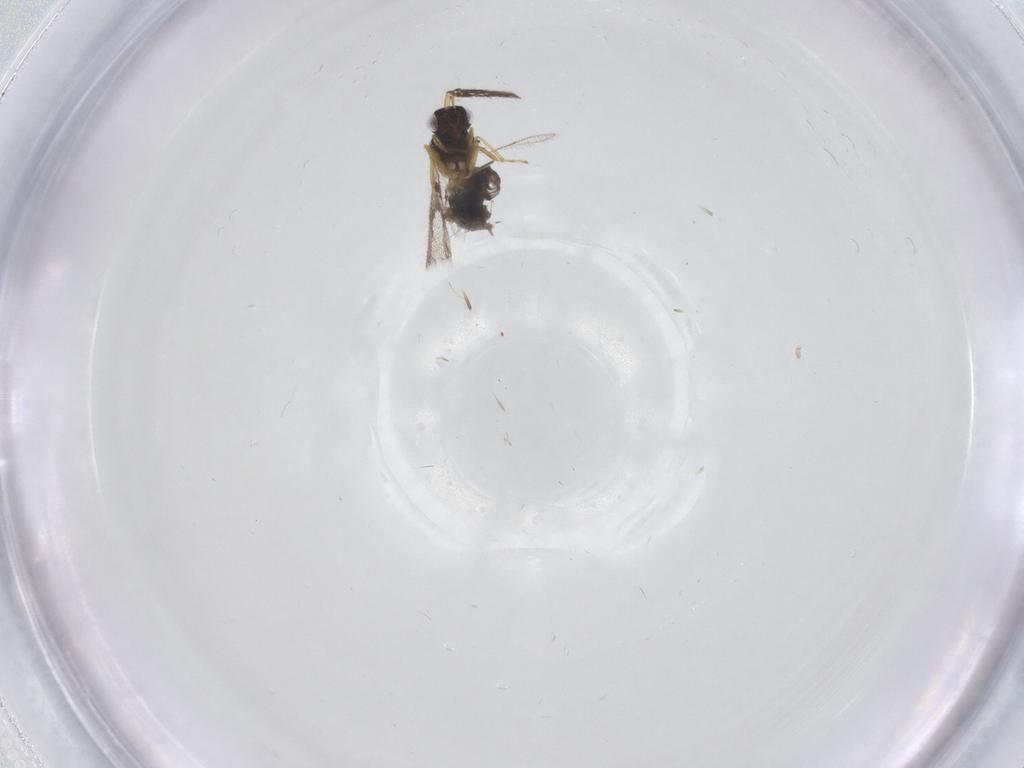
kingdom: Animalia
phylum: Arthropoda
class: Insecta
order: Hymenoptera
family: Eulophidae
